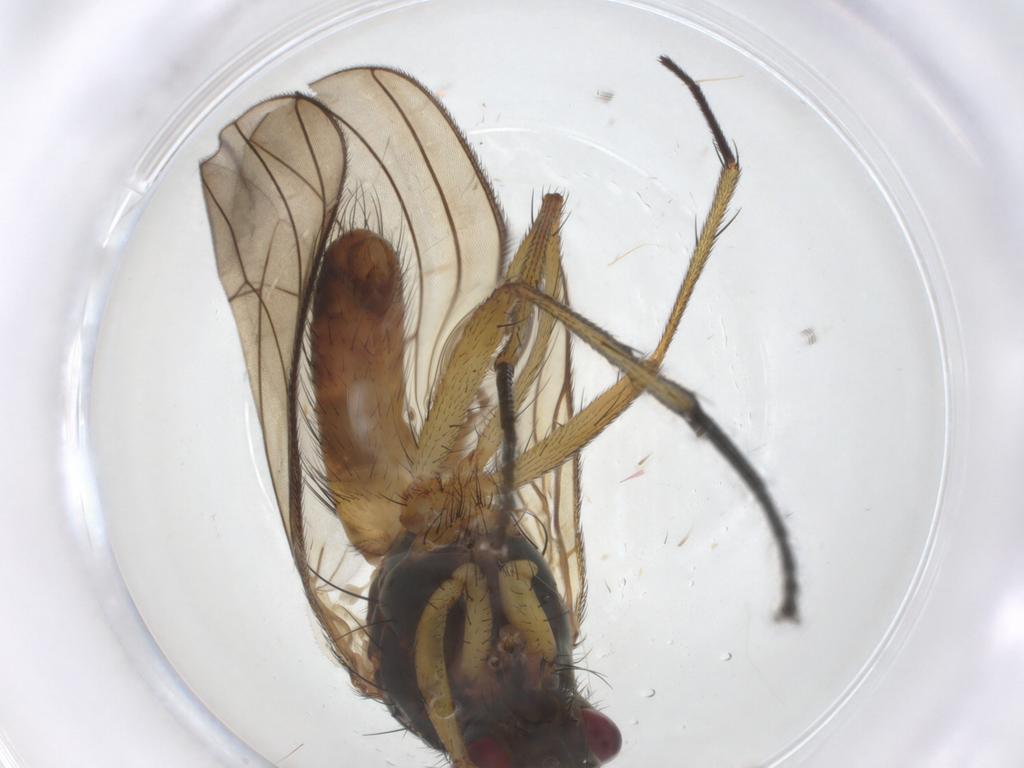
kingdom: Animalia
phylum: Arthropoda
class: Insecta
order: Diptera
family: Muscidae
